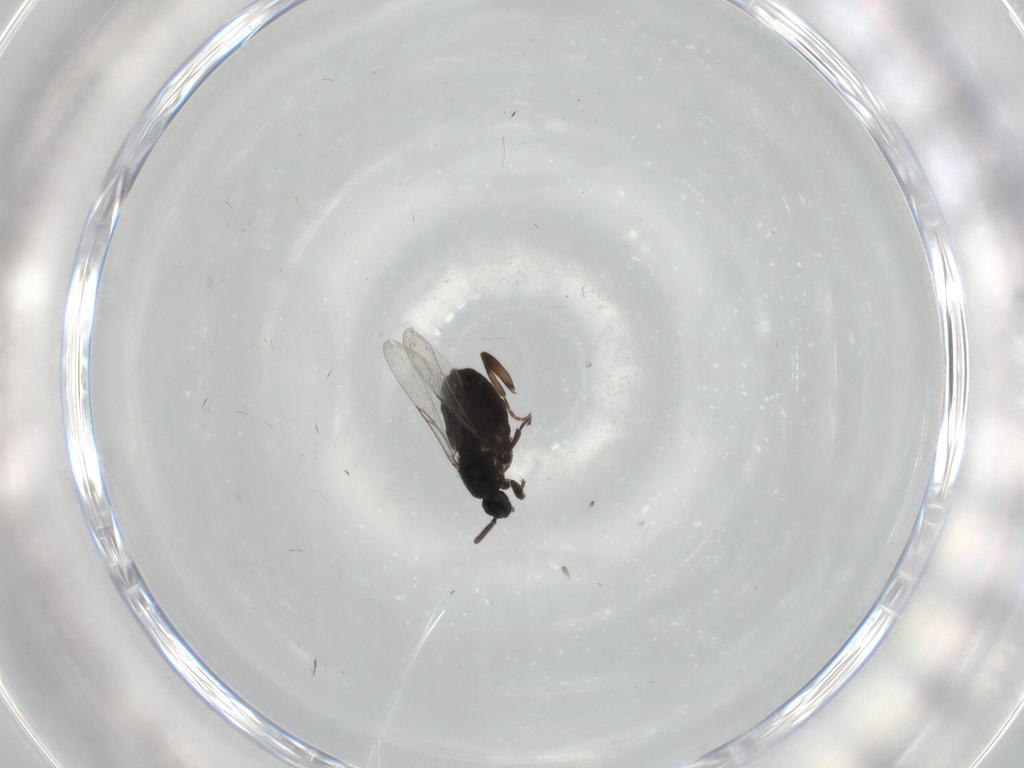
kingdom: Animalia
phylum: Arthropoda
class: Insecta
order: Diptera
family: Calliphoridae
